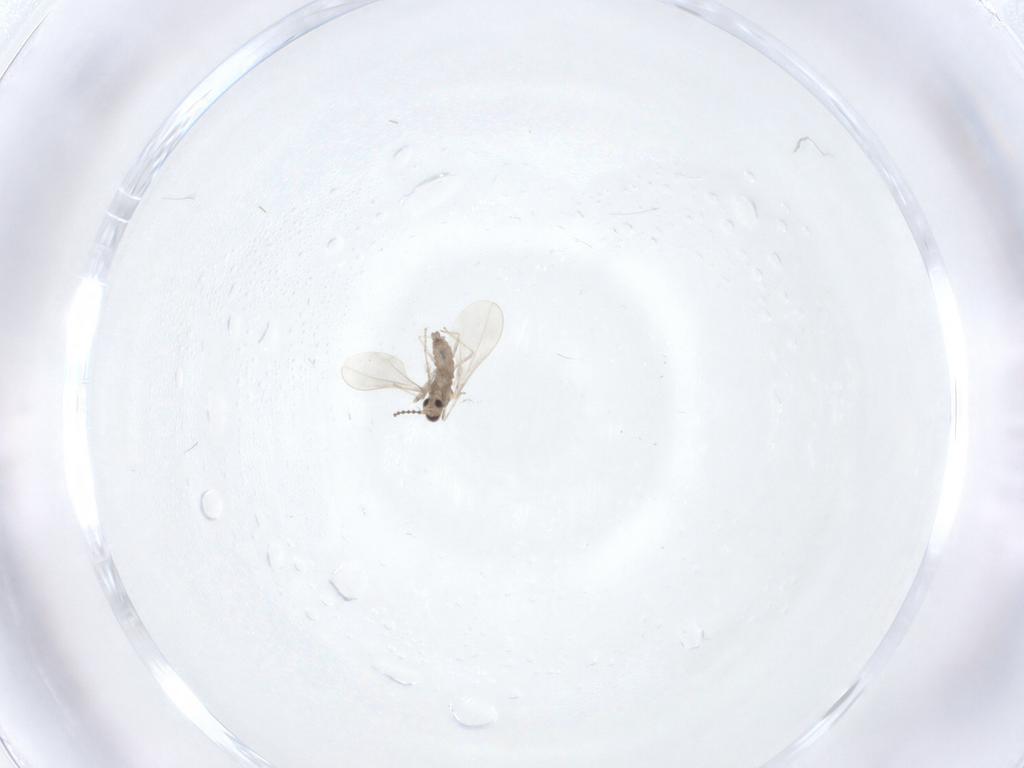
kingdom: Animalia
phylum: Arthropoda
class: Insecta
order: Diptera
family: Cecidomyiidae
